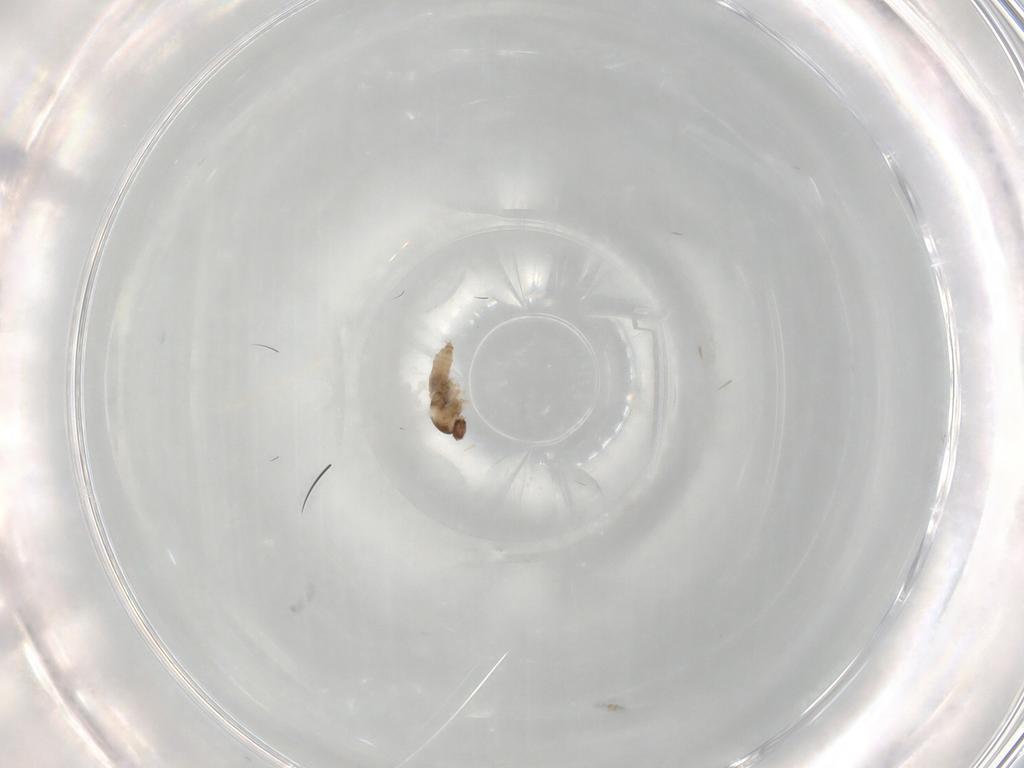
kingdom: Animalia
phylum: Arthropoda
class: Insecta
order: Diptera
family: Cecidomyiidae
